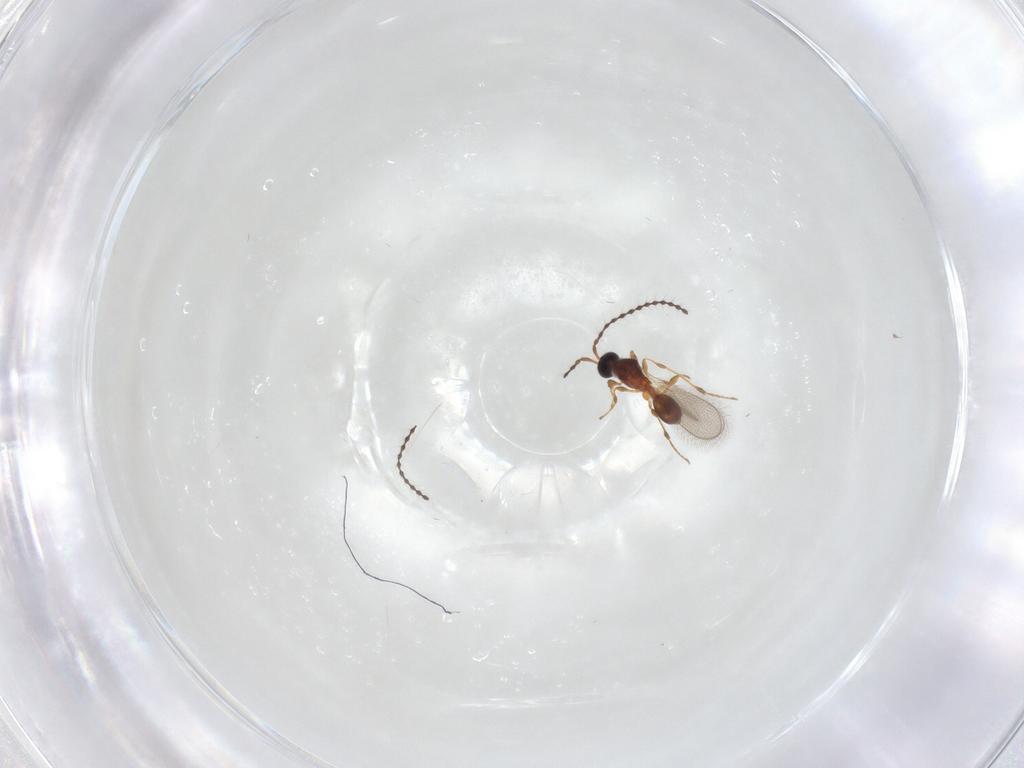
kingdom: Animalia
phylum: Arthropoda
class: Insecta
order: Hymenoptera
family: Diapriidae
